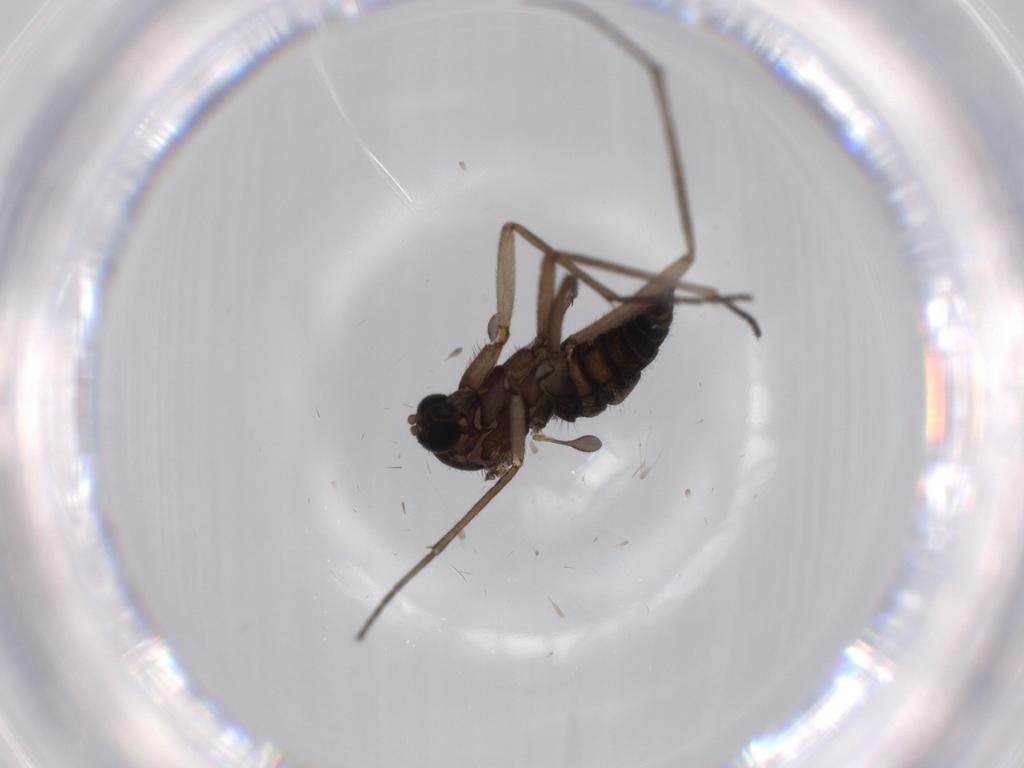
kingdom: Animalia
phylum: Arthropoda
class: Insecta
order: Diptera
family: Sciaridae
